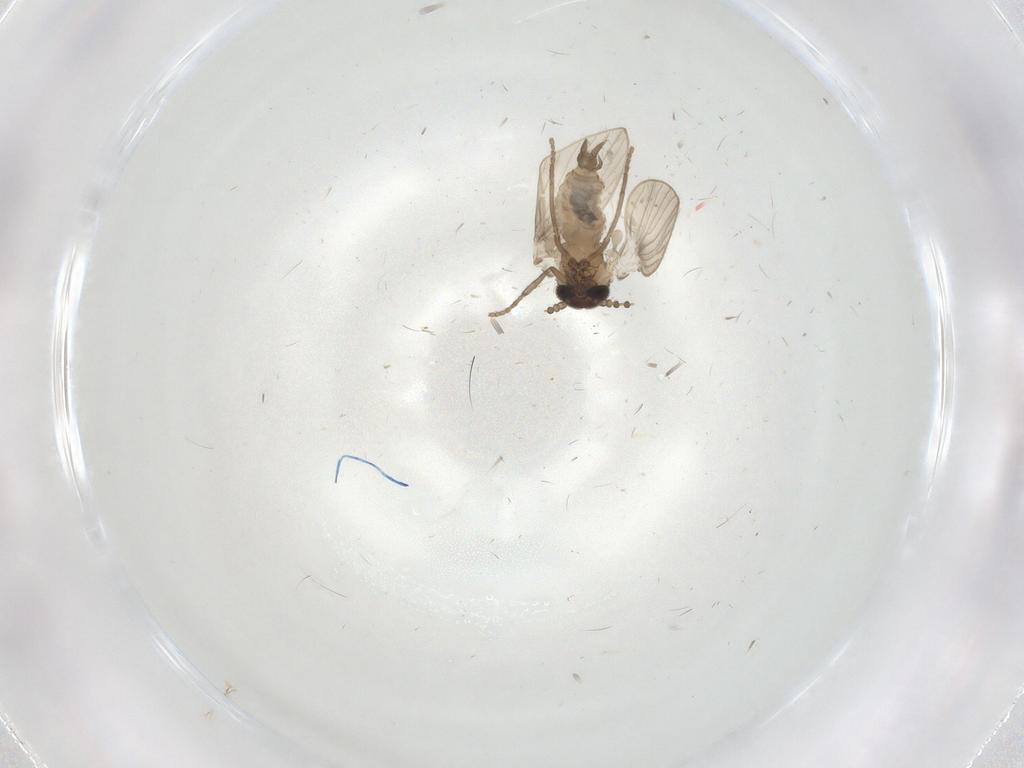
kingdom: Animalia
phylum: Arthropoda
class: Insecta
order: Diptera
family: Psychodidae
